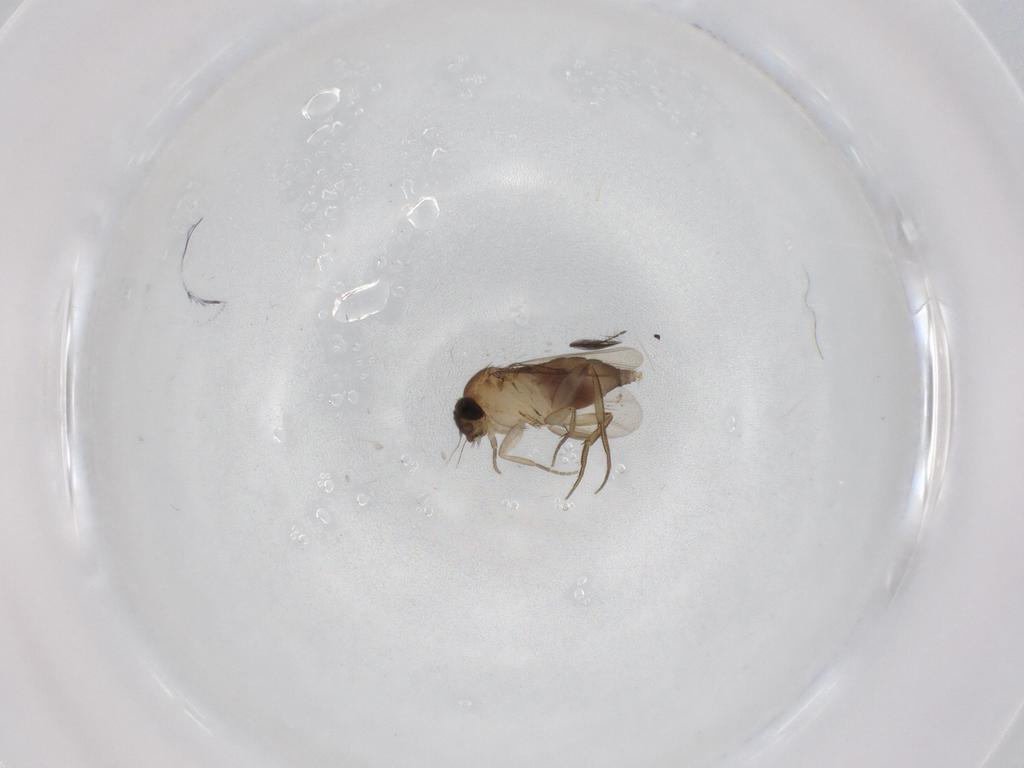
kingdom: Animalia
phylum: Arthropoda
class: Insecta
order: Diptera
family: Phoridae
